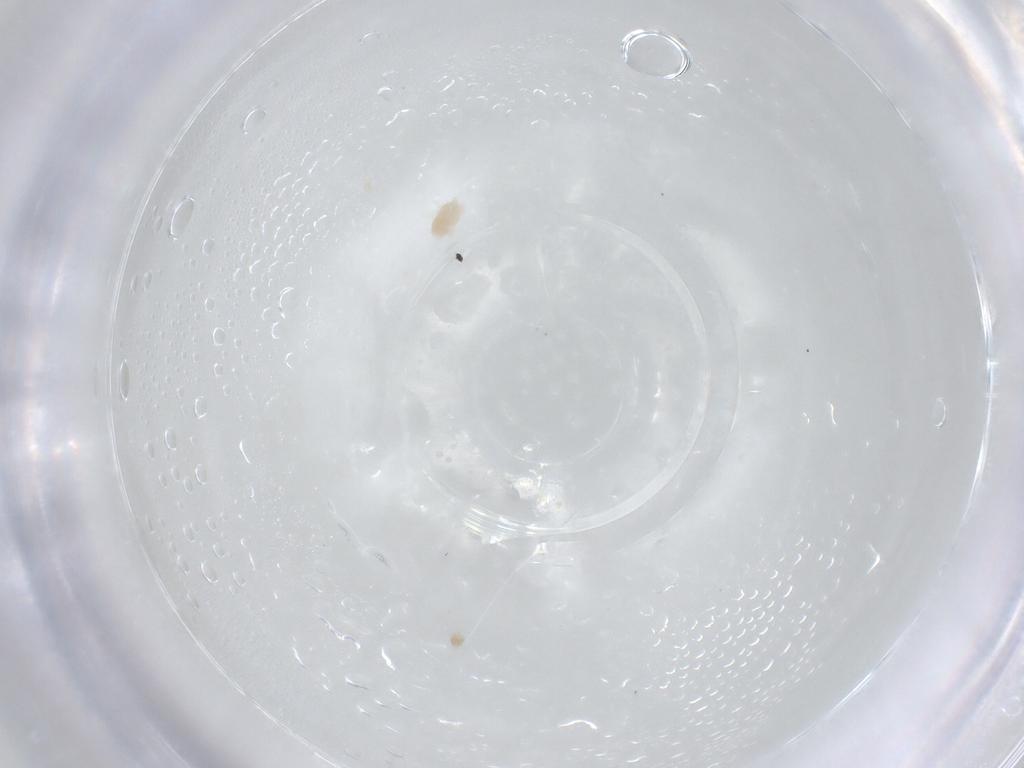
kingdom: Animalia
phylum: Arthropoda
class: Arachnida
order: Trombidiformes
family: Eupodidae
